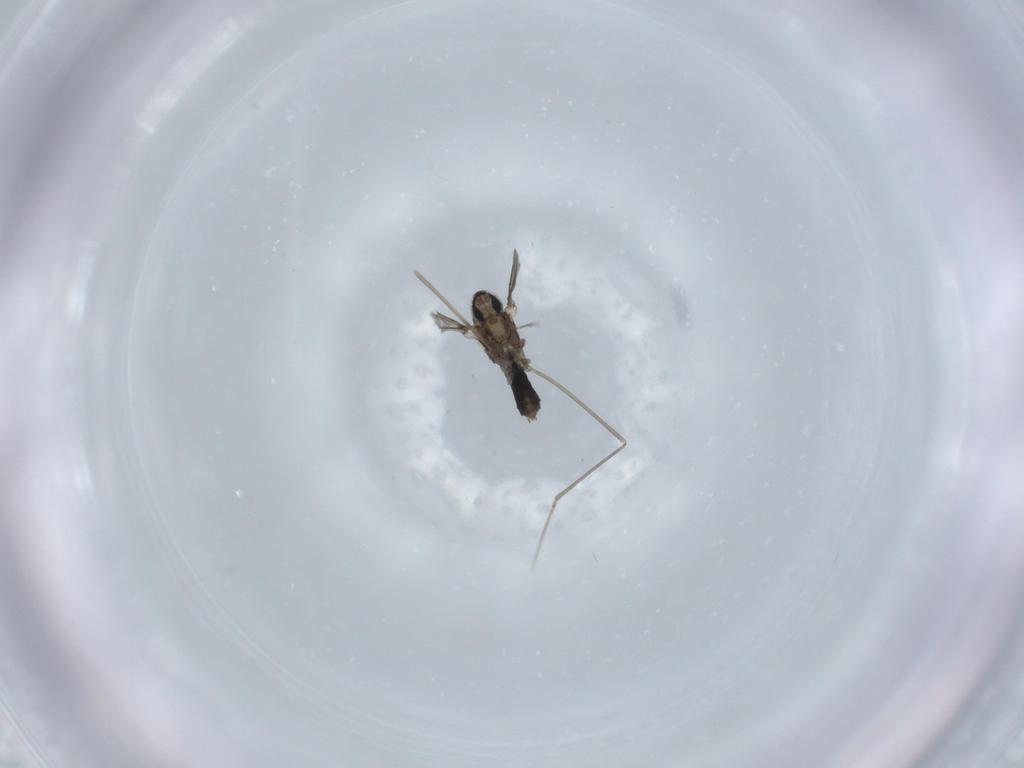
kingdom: Animalia
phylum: Arthropoda
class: Insecta
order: Diptera
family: Cecidomyiidae
